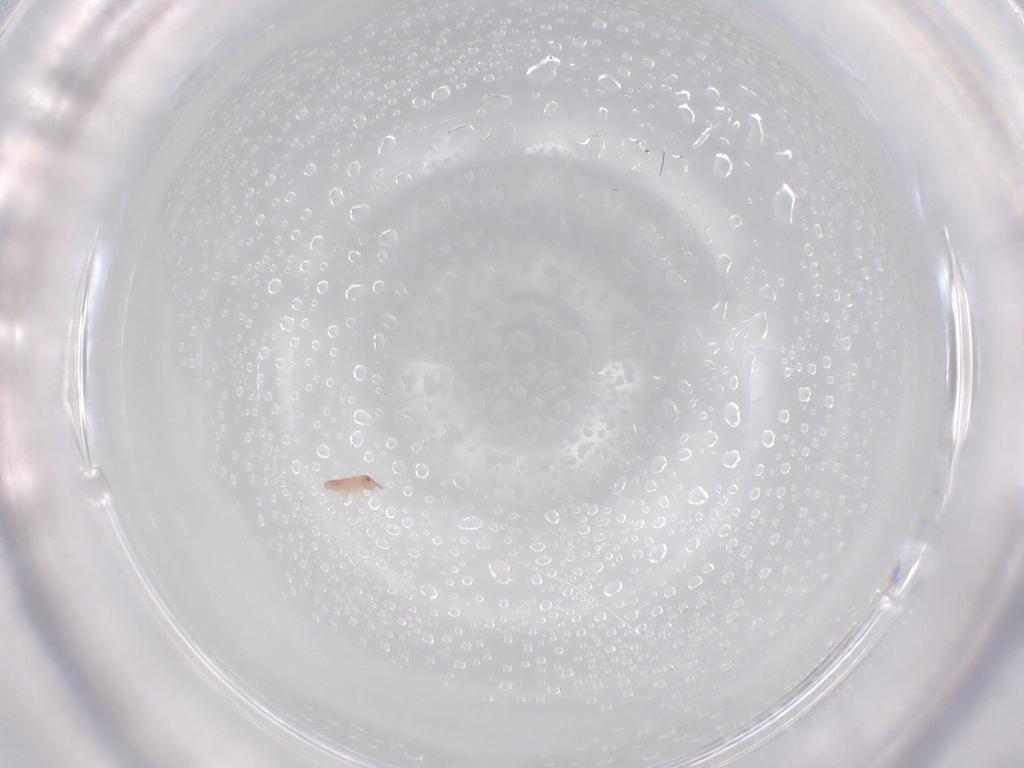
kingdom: Animalia
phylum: Arthropoda
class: Collembola
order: Poduromorpha
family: Hypogastruridae
